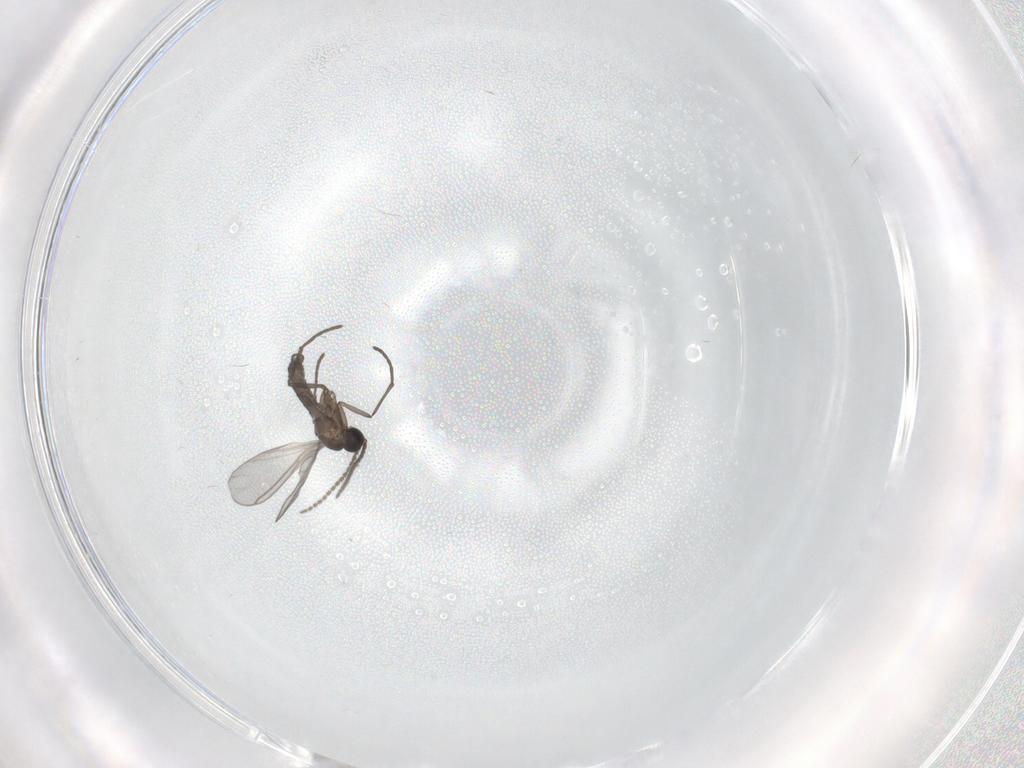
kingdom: Animalia
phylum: Arthropoda
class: Insecta
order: Diptera
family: Sciaridae
